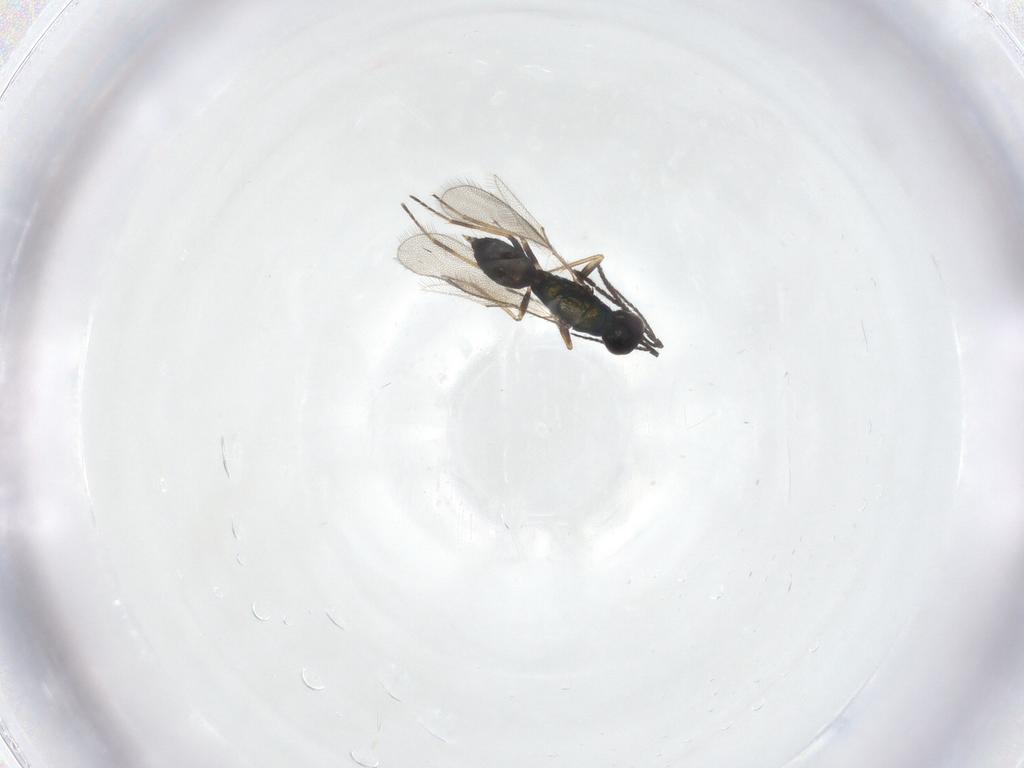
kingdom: Animalia
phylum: Arthropoda
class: Insecta
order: Hymenoptera
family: Eulophidae
